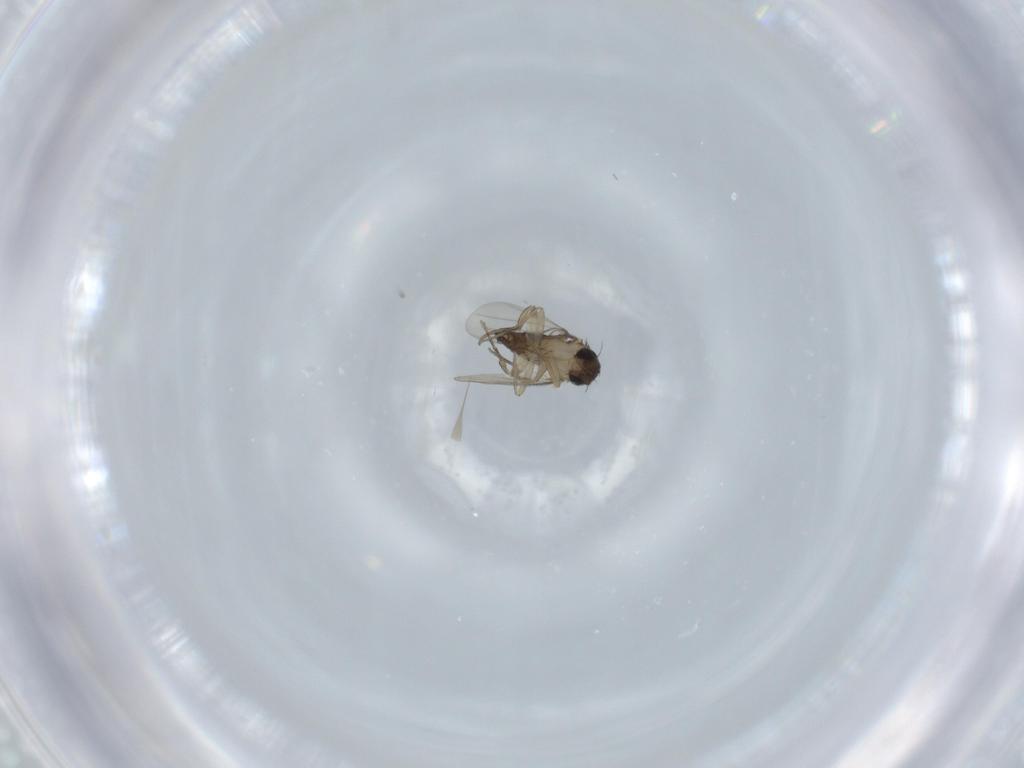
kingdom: Animalia
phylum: Arthropoda
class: Insecta
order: Diptera
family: Phoridae
